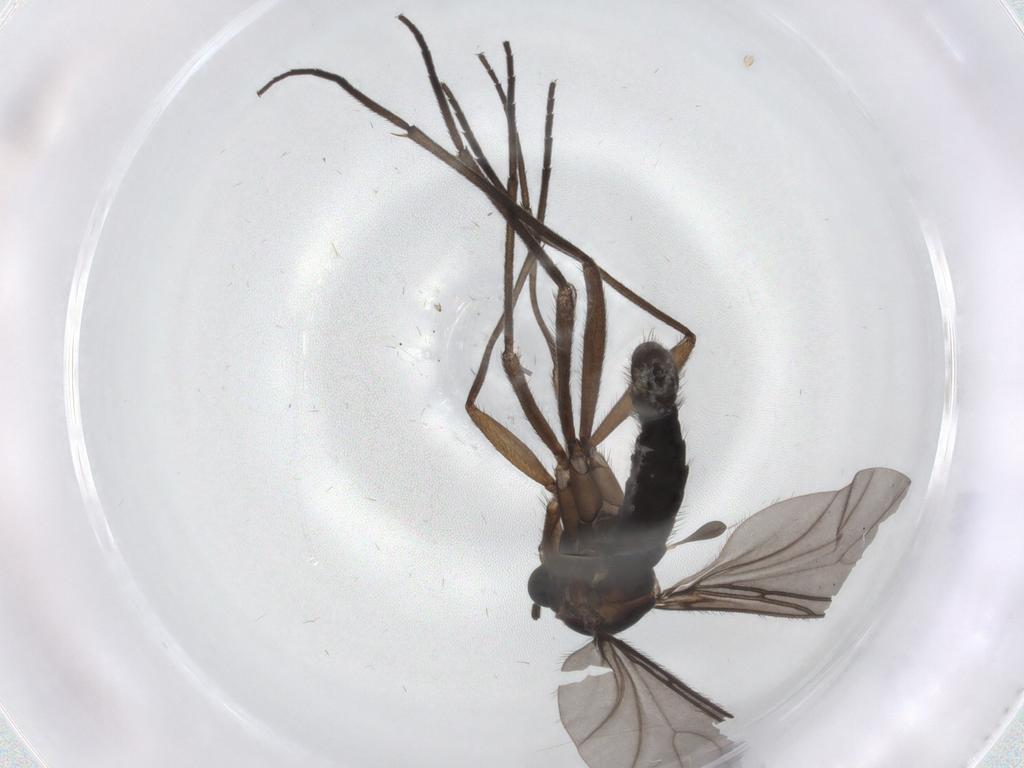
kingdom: Animalia
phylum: Arthropoda
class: Insecta
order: Diptera
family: Sciaridae
